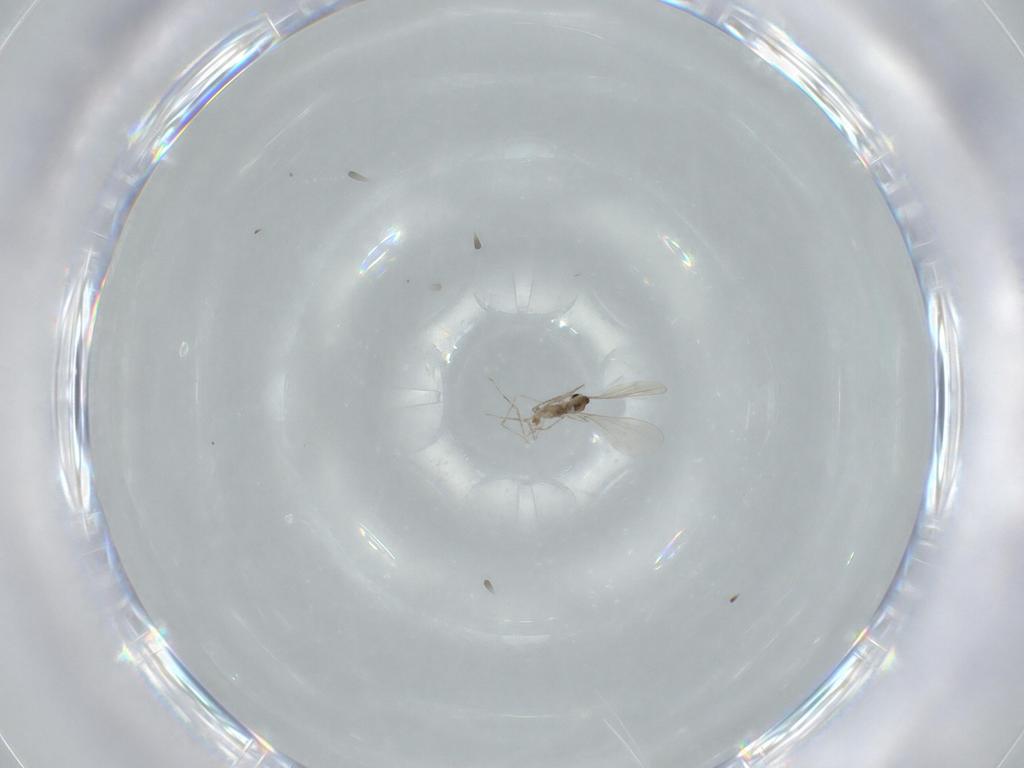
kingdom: Animalia
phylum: Arthropoda
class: Insecta
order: Diptera
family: Cecidomyiidae
